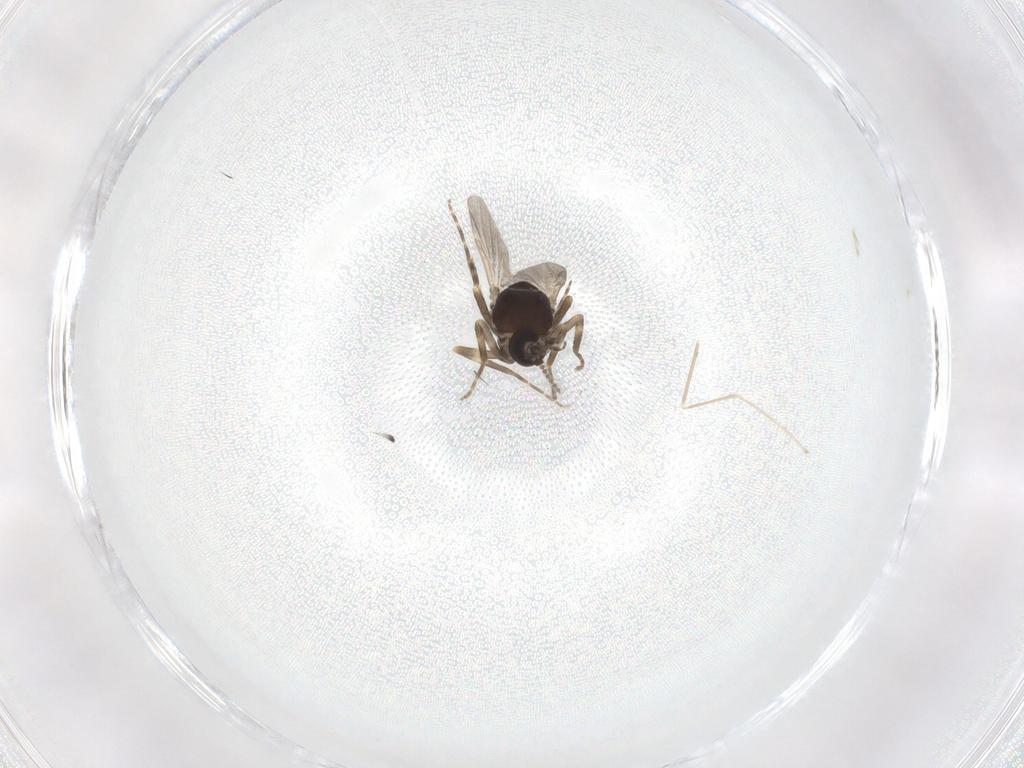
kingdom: Animalia
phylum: Arthropoda
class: Insecta
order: Diptera
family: Ceratopogonidae
